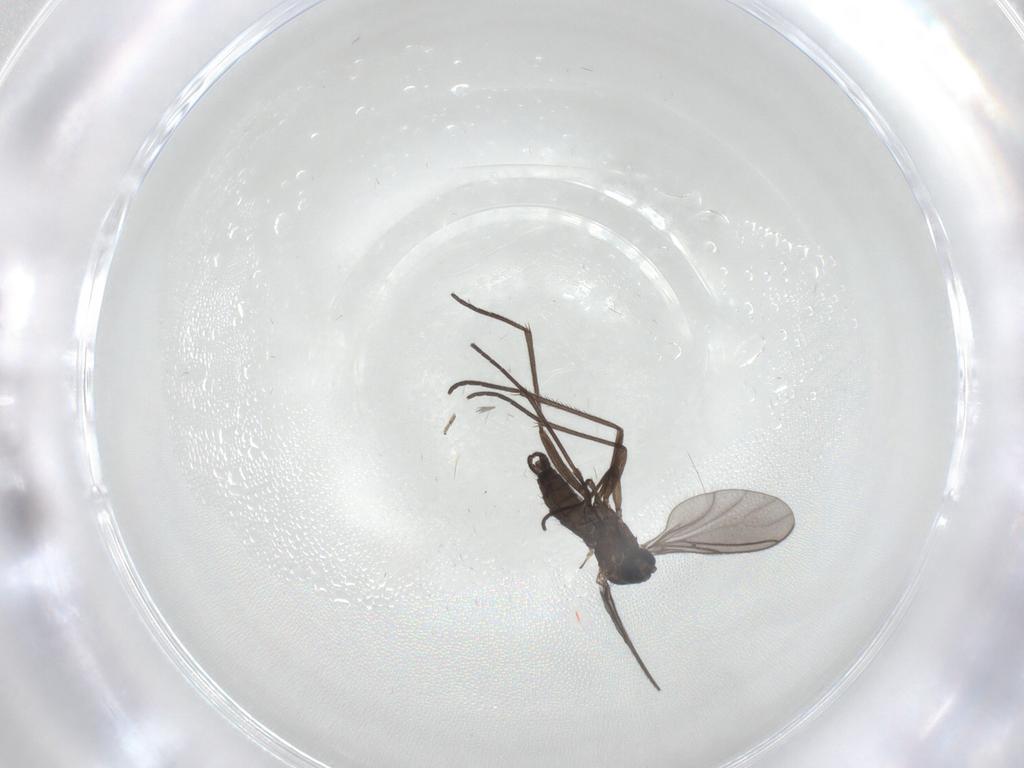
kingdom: Animalia
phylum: Arthropoda
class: Insecta
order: Diptera
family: Sciaridae
